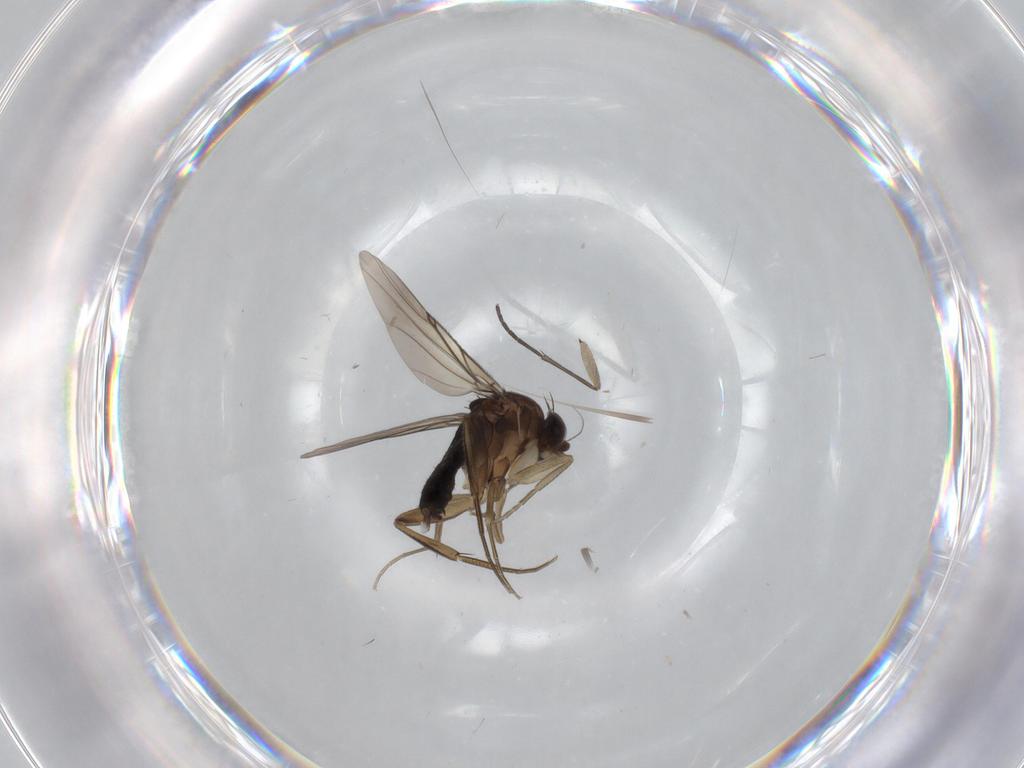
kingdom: Animalia
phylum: Arthropoda
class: Insecta
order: Diptera
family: Phoridae
